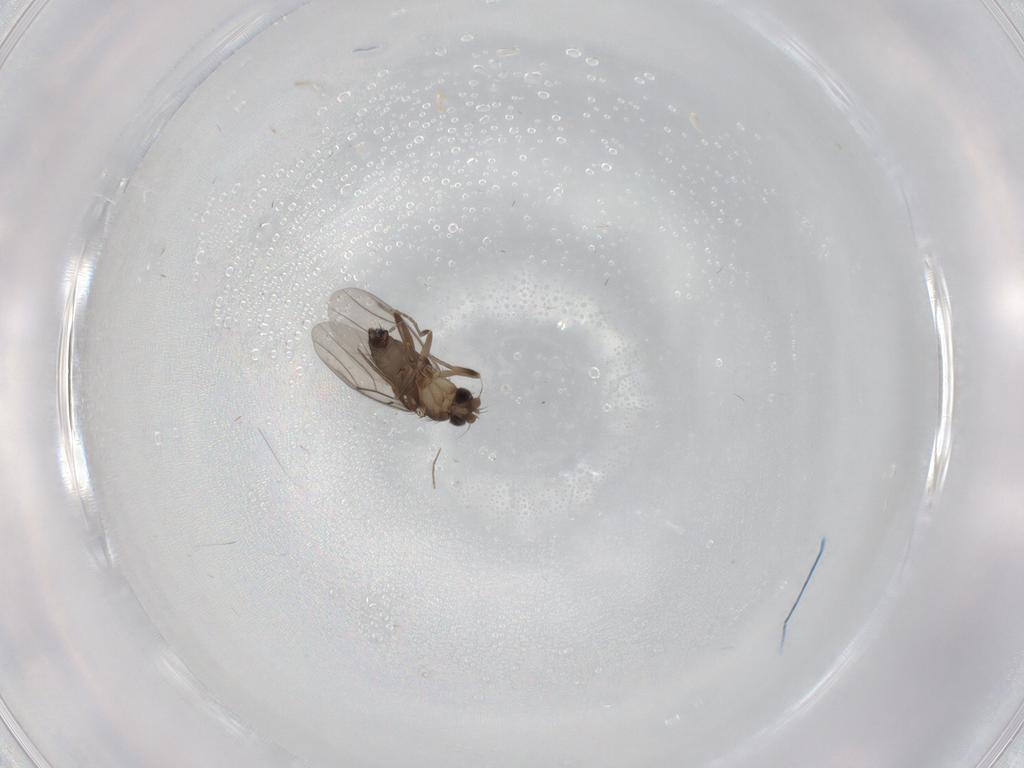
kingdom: Animalia
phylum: Arthropoda
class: Insecta
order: Diptera
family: Phoridae
